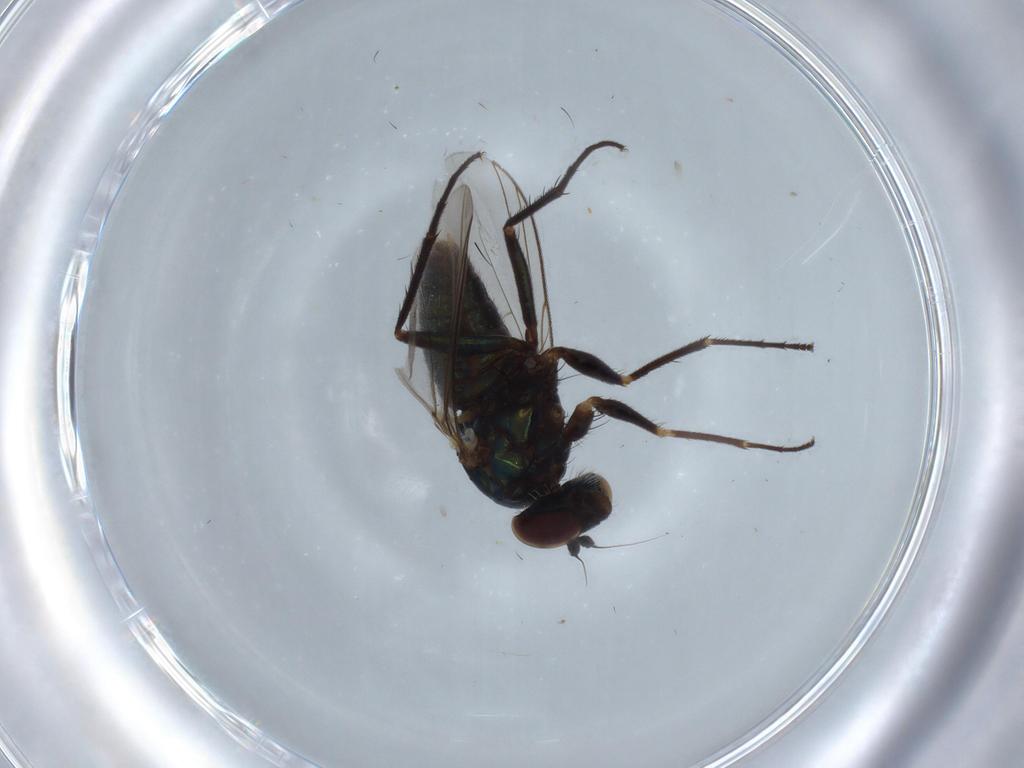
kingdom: Animalia
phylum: Arthropoda
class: Insecta
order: Diptera
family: Dolichopodidae
